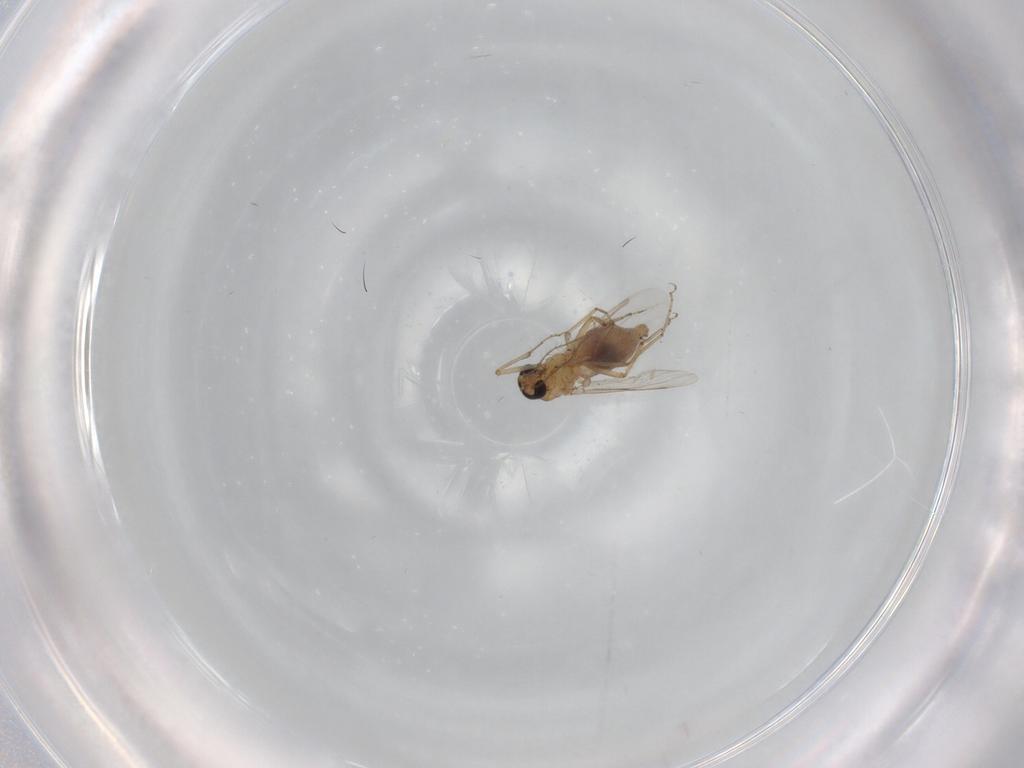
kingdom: Animalia
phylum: Arthropoda
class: Insecta
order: Diptera
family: Ceratopogonidae
